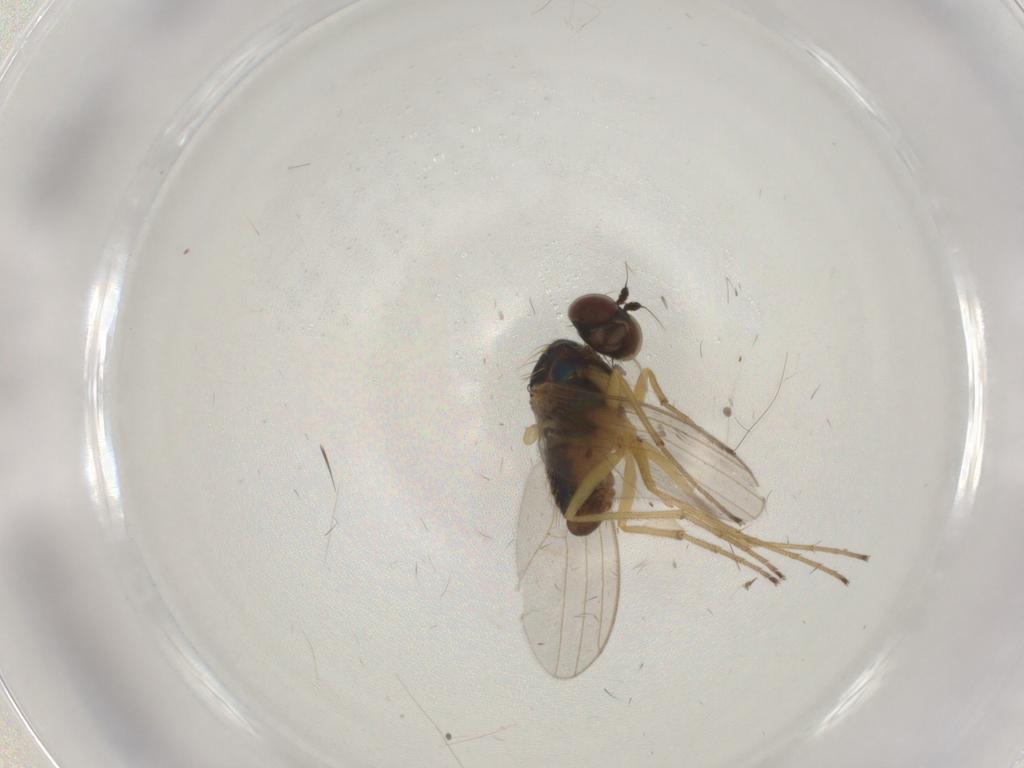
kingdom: Animalia
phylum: Arthropoda
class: Insecta
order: Diptera
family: Dolichopodidae
